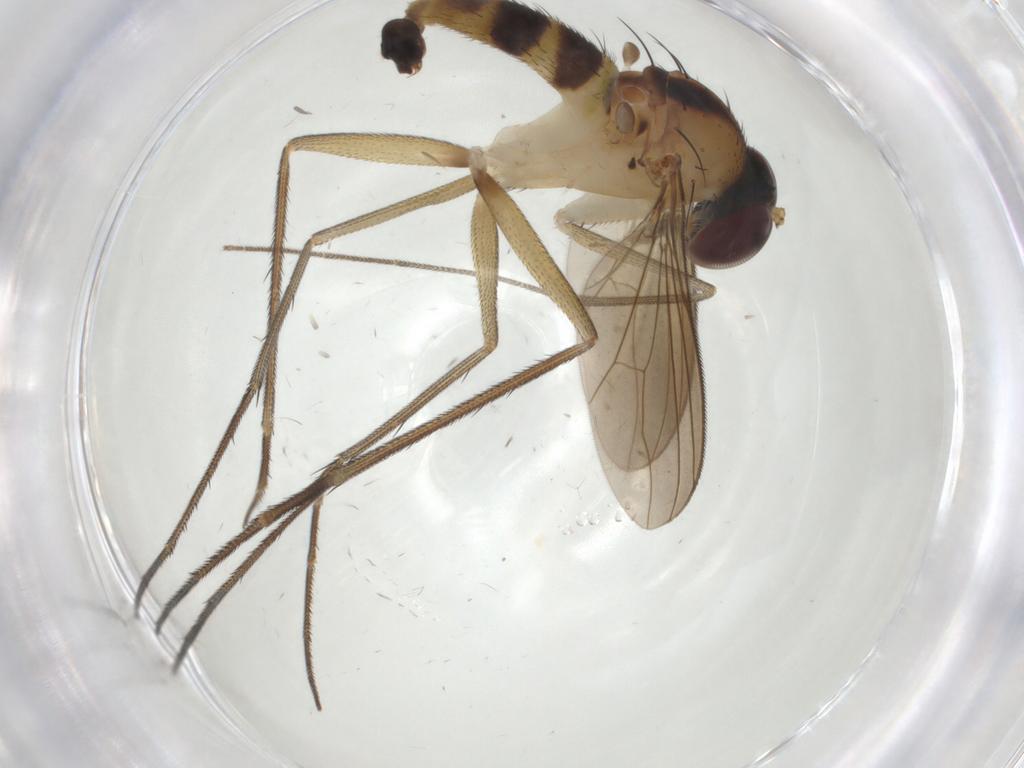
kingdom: Animalia
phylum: Arthropoda
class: Insecta
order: Diptera
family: Dolichopodidae
